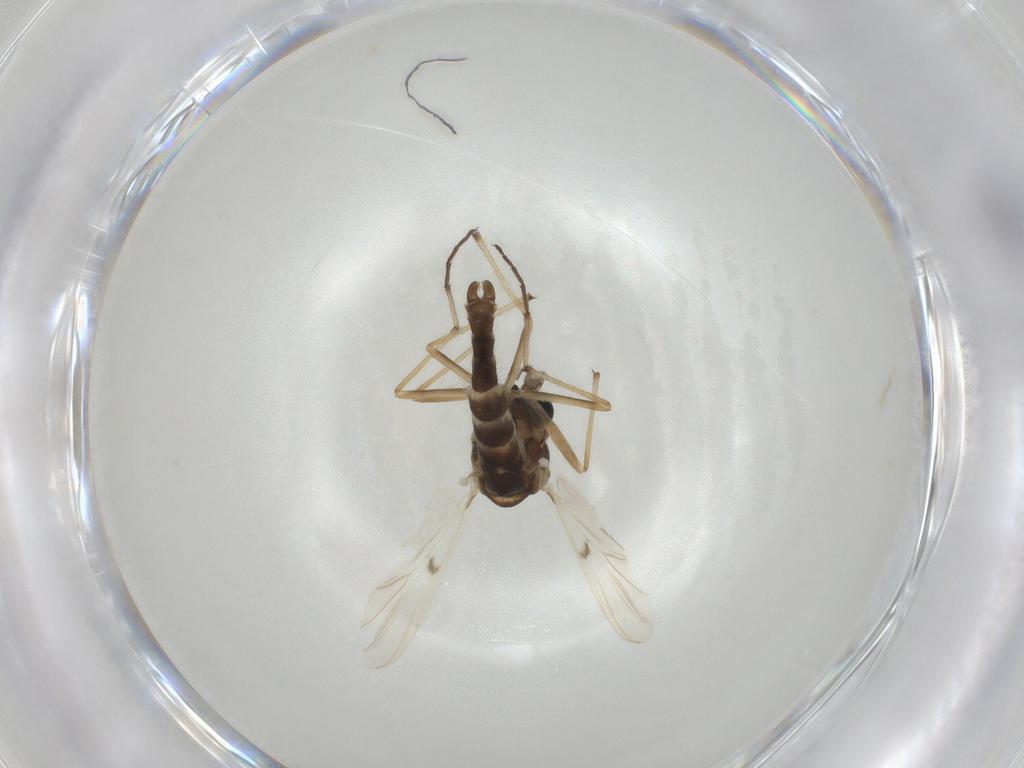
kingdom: Animalia
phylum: Arthropoda
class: Insecta
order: Diptera
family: Chironomidae
